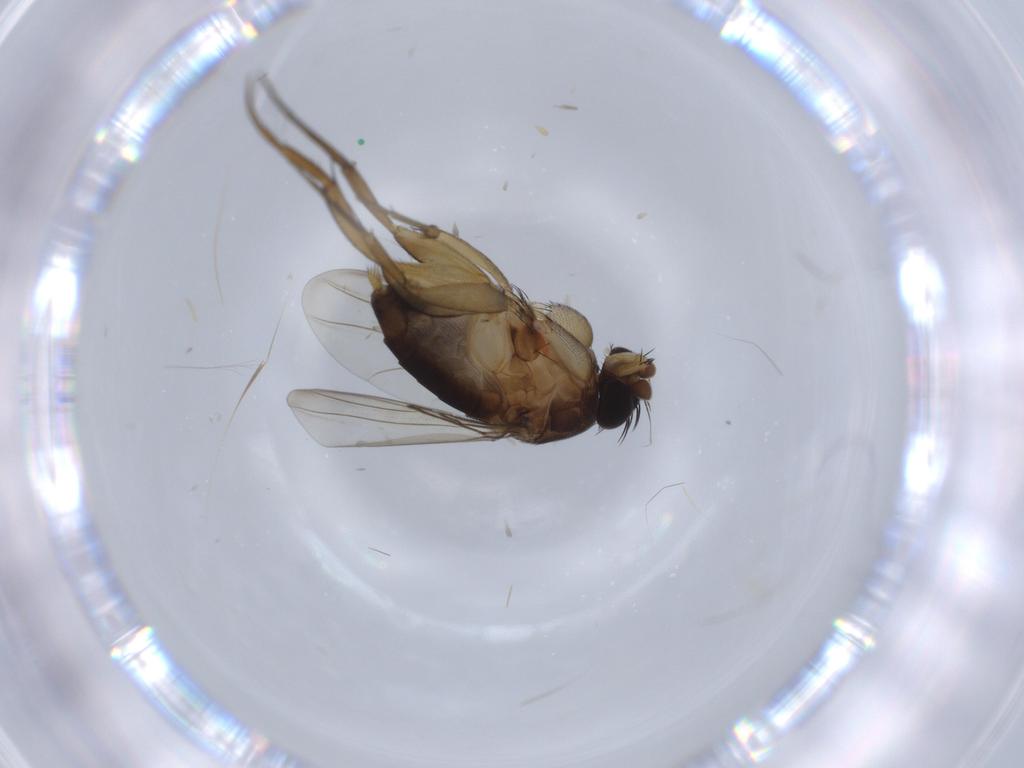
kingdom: Animalia
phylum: Arthropoda
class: Insecta
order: Diptera
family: Phoridae
